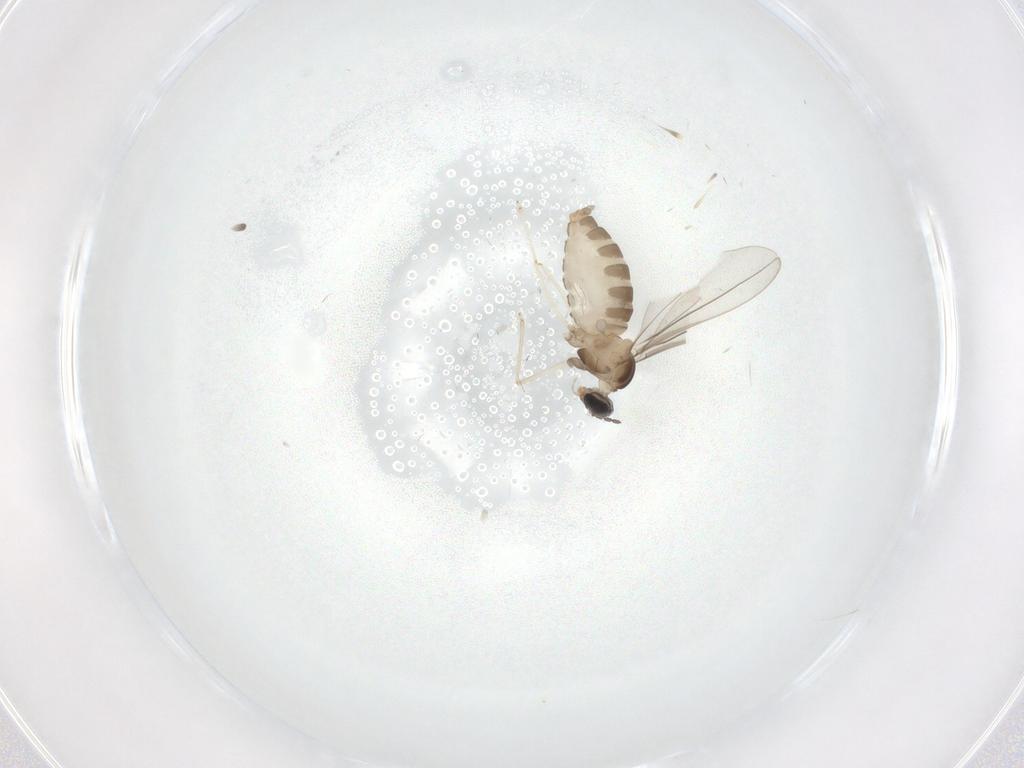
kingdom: Animalia
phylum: Arthropoda
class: Insecta
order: Diptera
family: Cecidomyiidae
